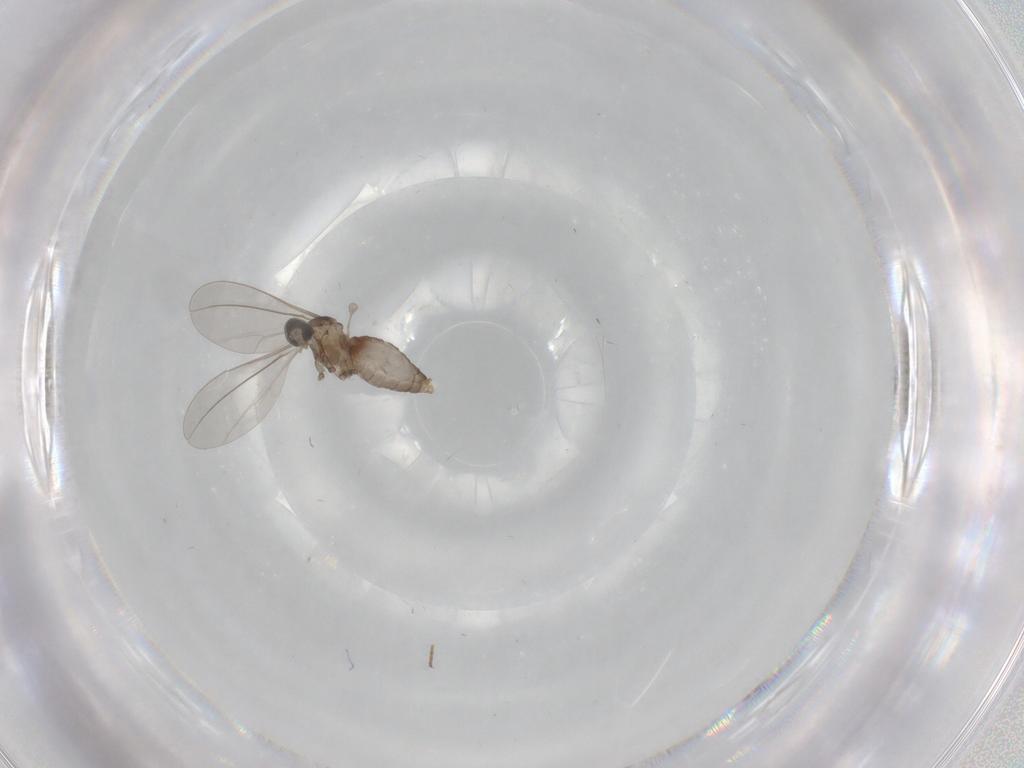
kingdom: Animalia
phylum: Arthropoda
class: Insecta
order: Diptera
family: Cecidomyiidae
